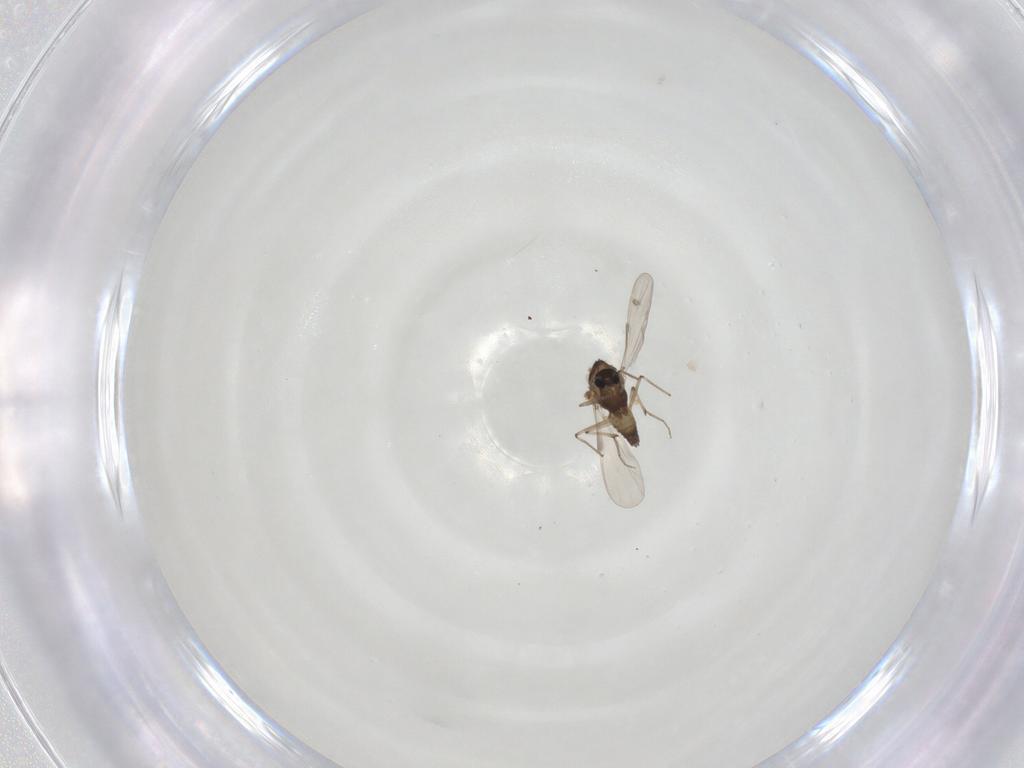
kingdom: Animalia
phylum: Arthropoda
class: Insecta
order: Diptera
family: Chironomidae
